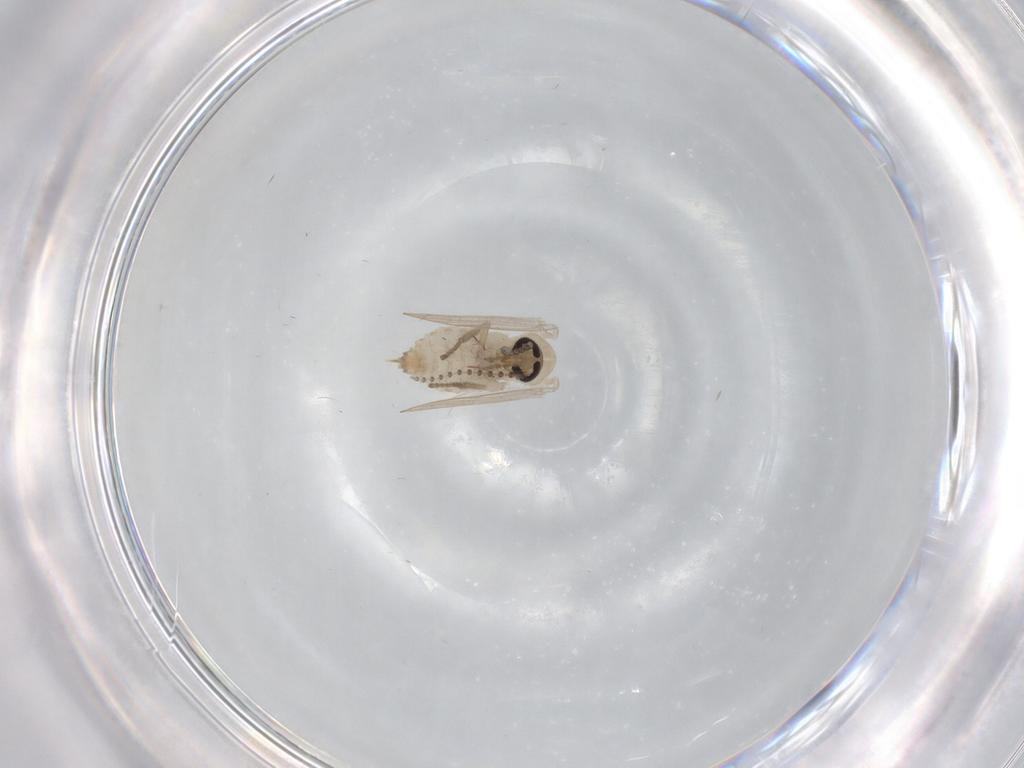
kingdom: Animalia
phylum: Arthropoda
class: Insecta
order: Diptera
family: Psychodidae
